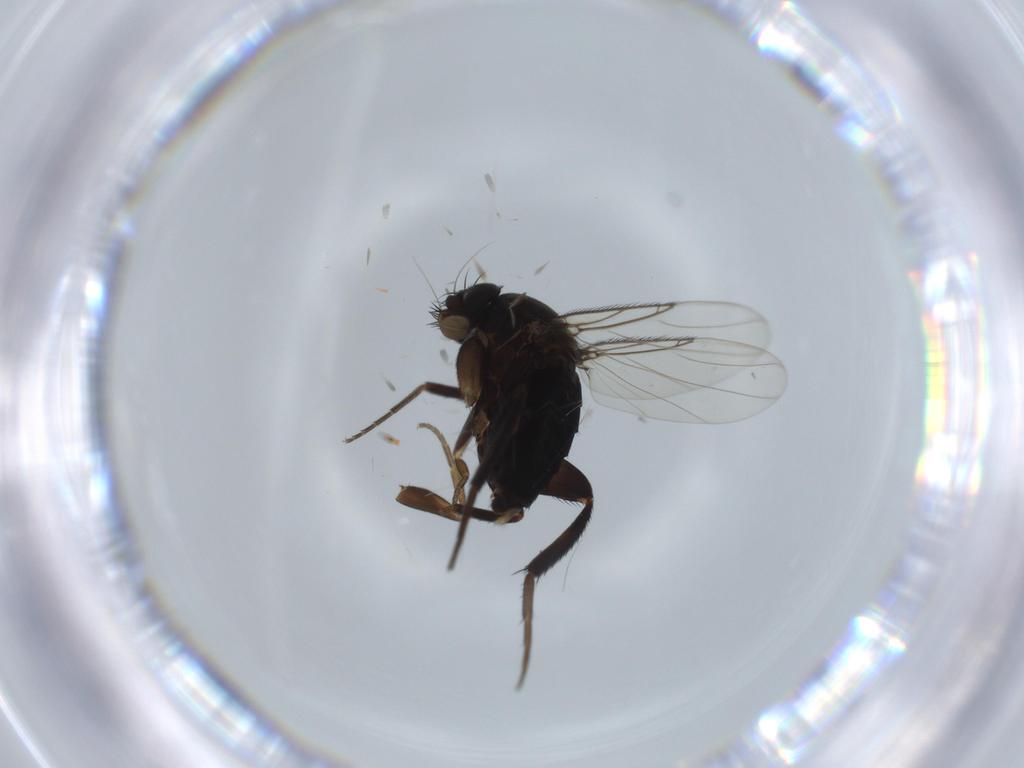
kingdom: Animalia
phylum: Arthropoda
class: Insecta
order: Diptera
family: Phoridae
